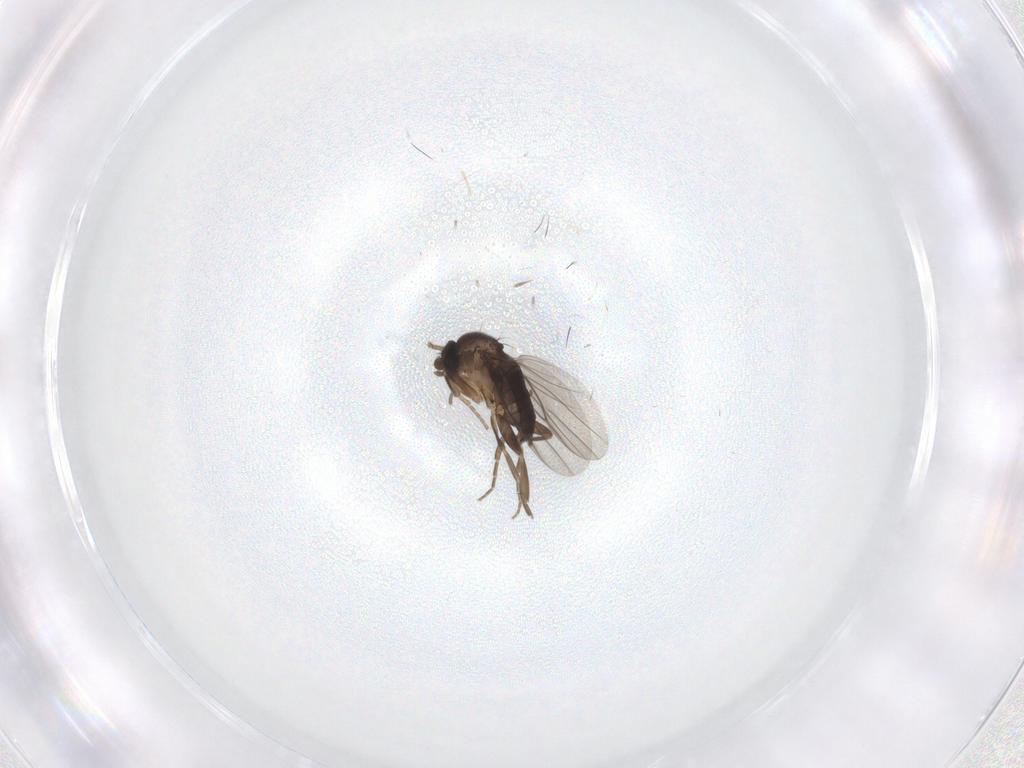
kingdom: Animalia
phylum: Arthropoda
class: Insecta
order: Diptera
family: Phoridae
